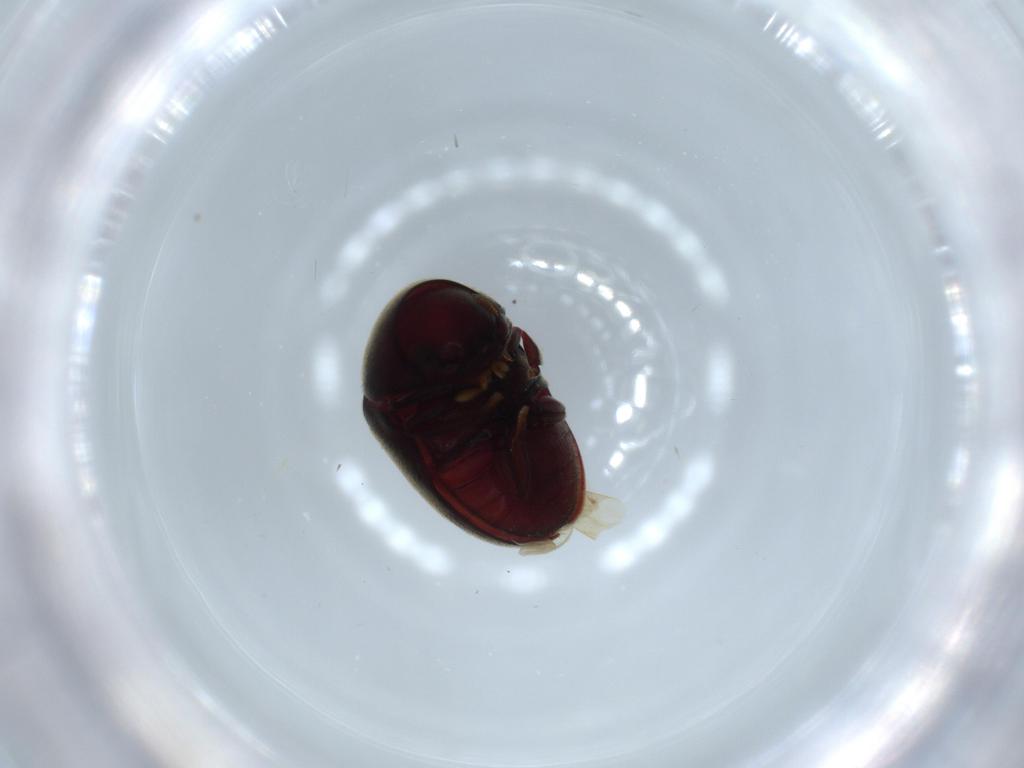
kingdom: Animalia
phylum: Arthropoda
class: Insecta
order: Coleoptera
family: Ptinidae
